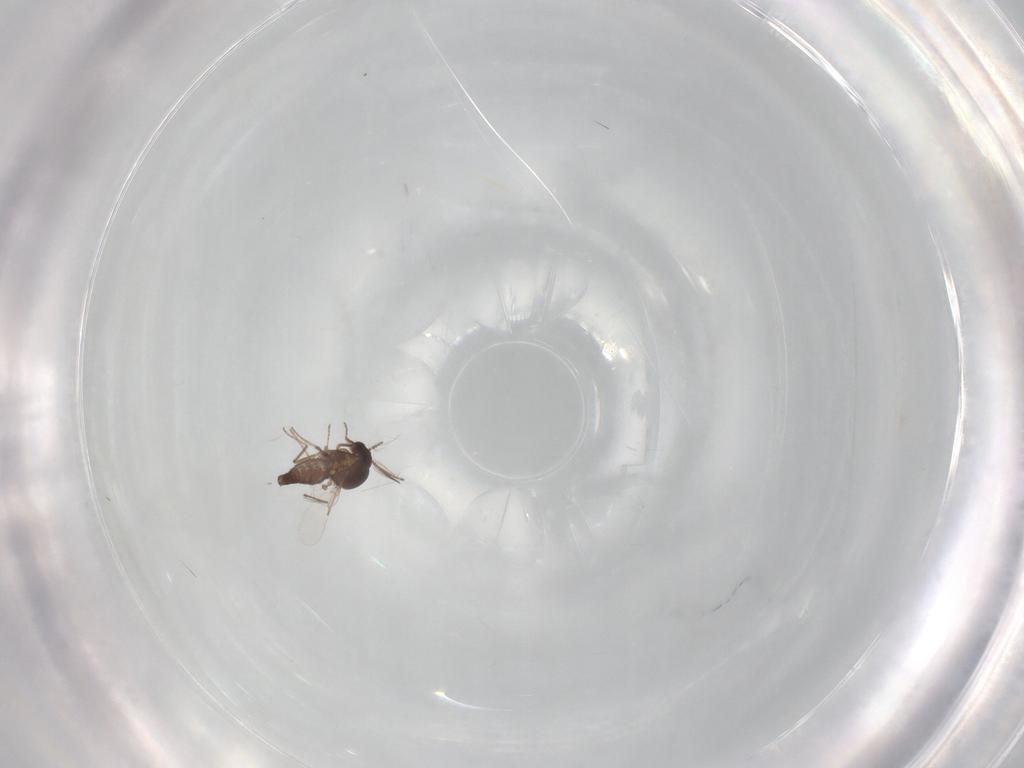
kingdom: Animalia
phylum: Arthropoda
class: Insecta
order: Diptera
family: Ceratopogonidae
